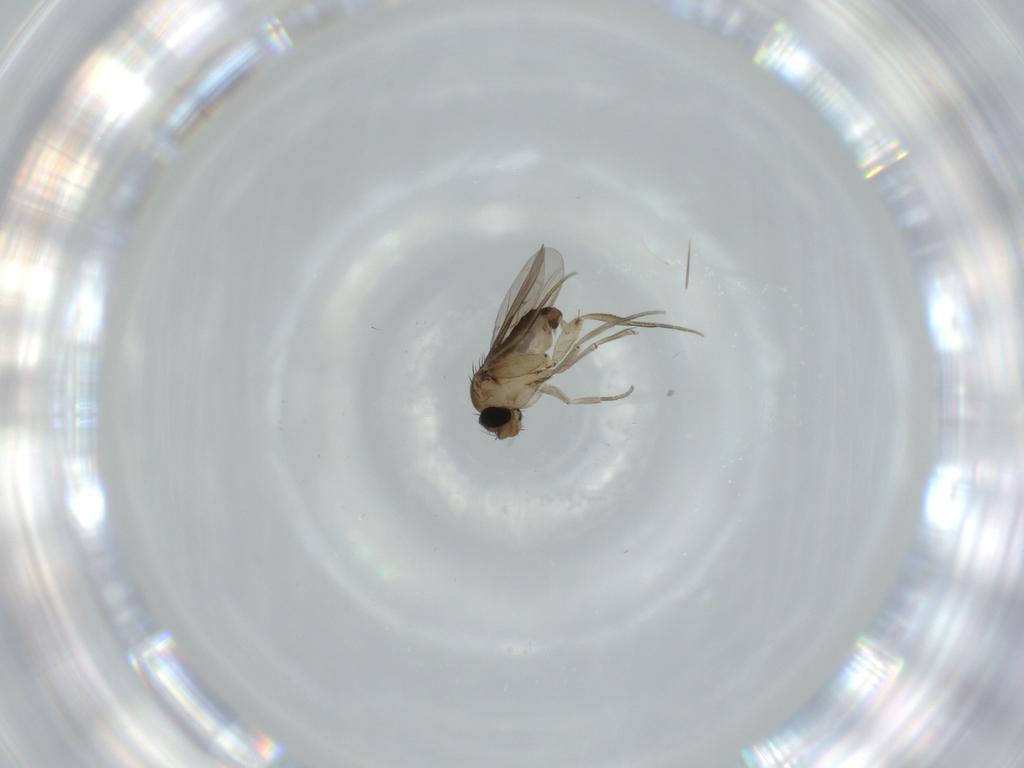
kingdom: Animalia
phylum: Arthropoda
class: Insecta
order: Diptera
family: Phoridae
